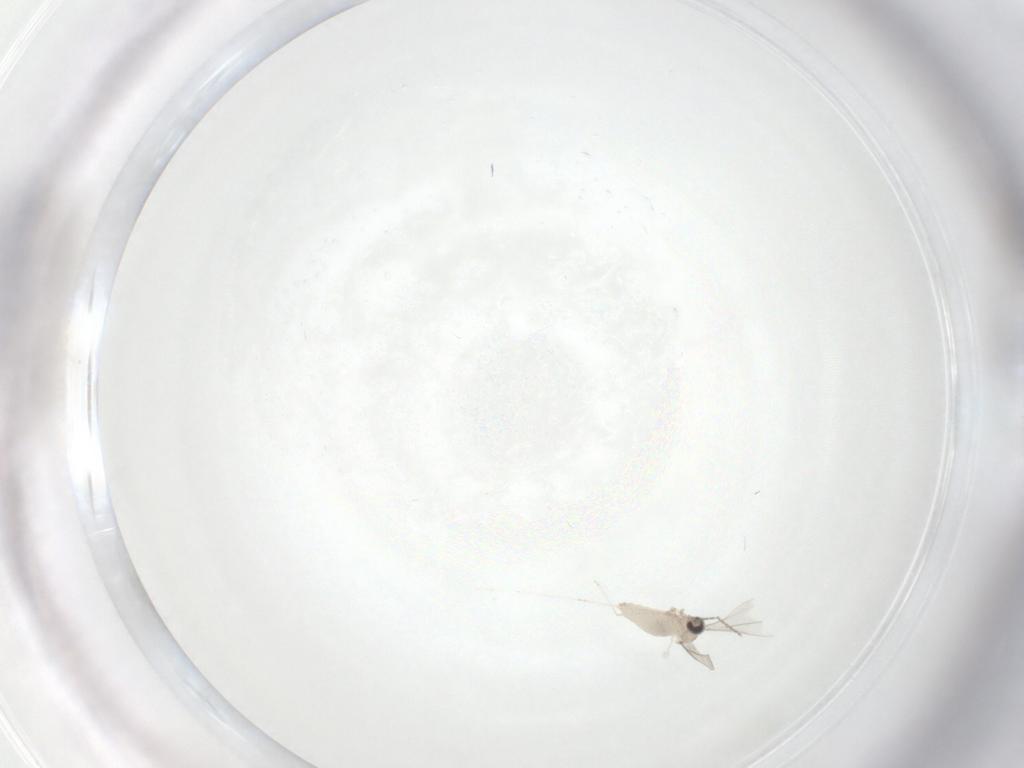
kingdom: Animalia
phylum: Arthropoda
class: Insecta
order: Diptera
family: Cecidomyiidae
